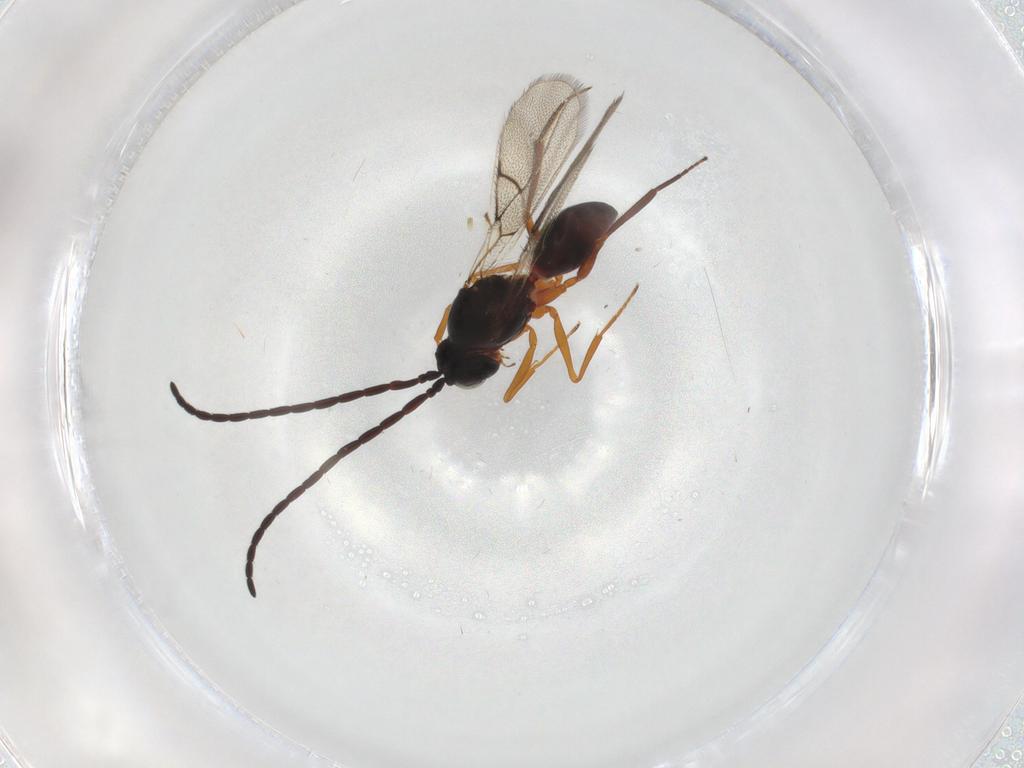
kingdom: Animalia
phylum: Arthropoda
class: Insecta
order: Hymenoptera
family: Figitidae
